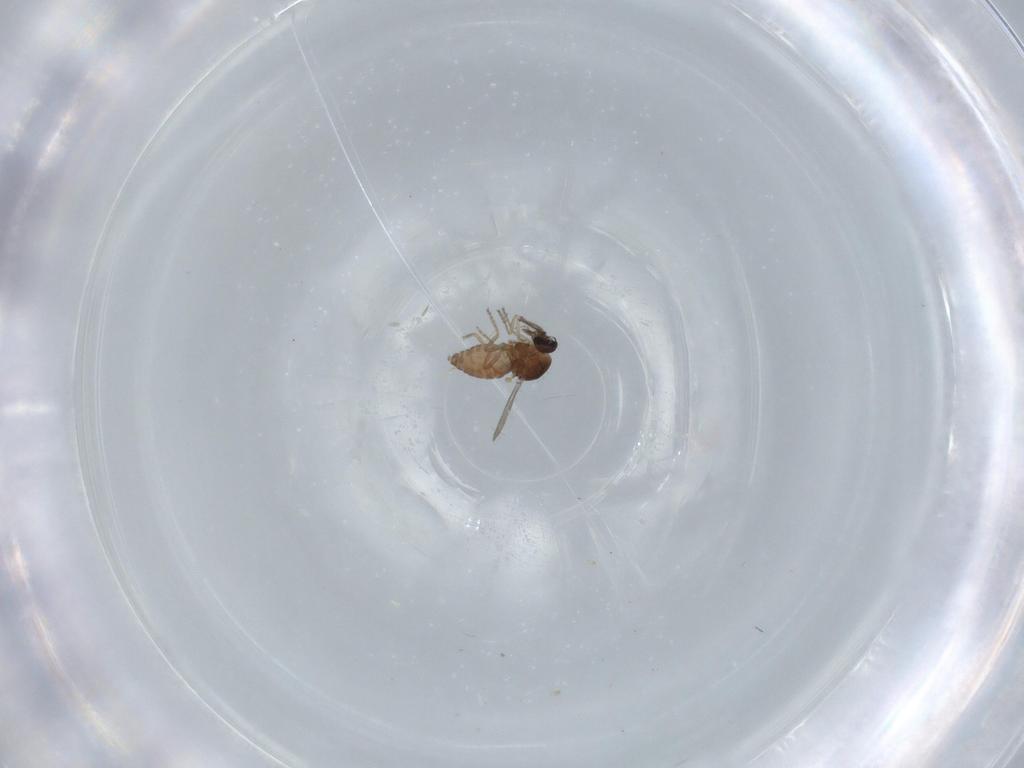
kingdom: Animalia
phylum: Arthropoda
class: Insecta
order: Diptera
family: Ceratopogonidae
